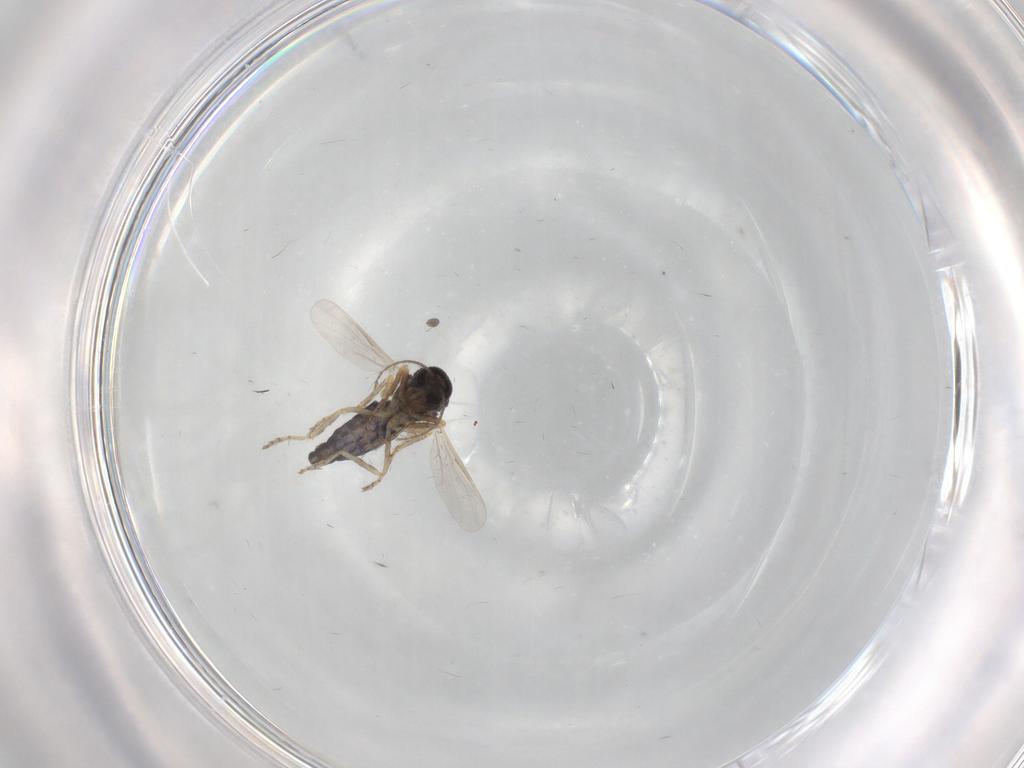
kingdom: Animalia
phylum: Arthropoda
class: Insecta
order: Diptera
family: Ceratopogonidae
